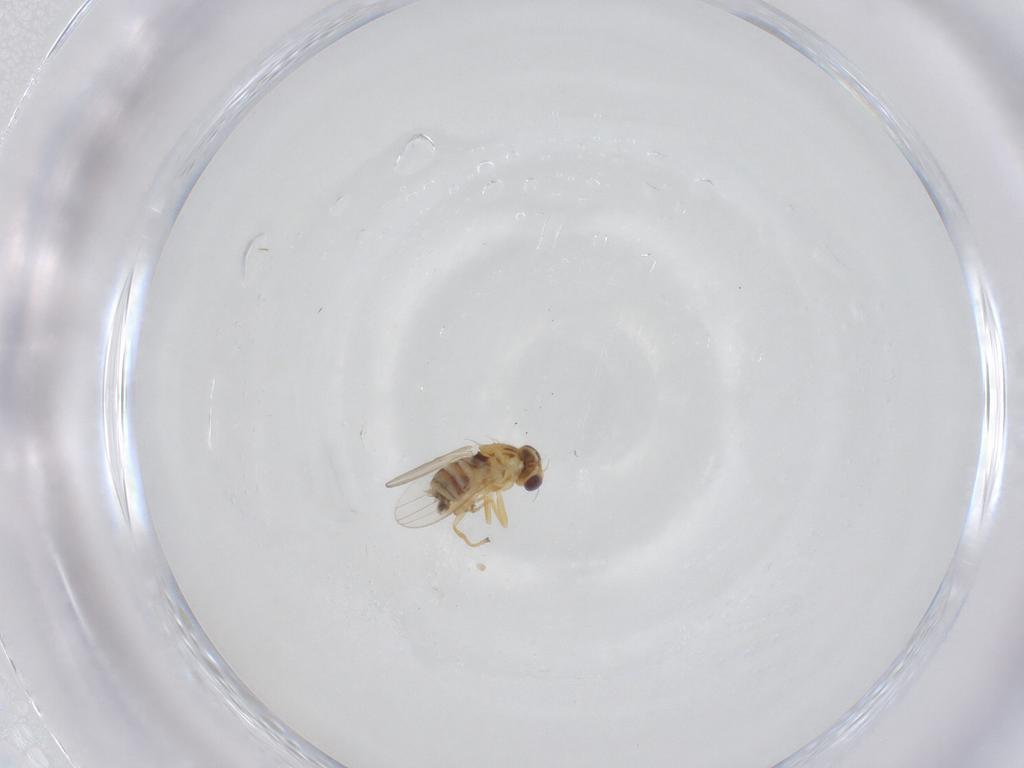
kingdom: Animalia
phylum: Arthropoda
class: Insecta
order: Diptera
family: Chyromyidae
